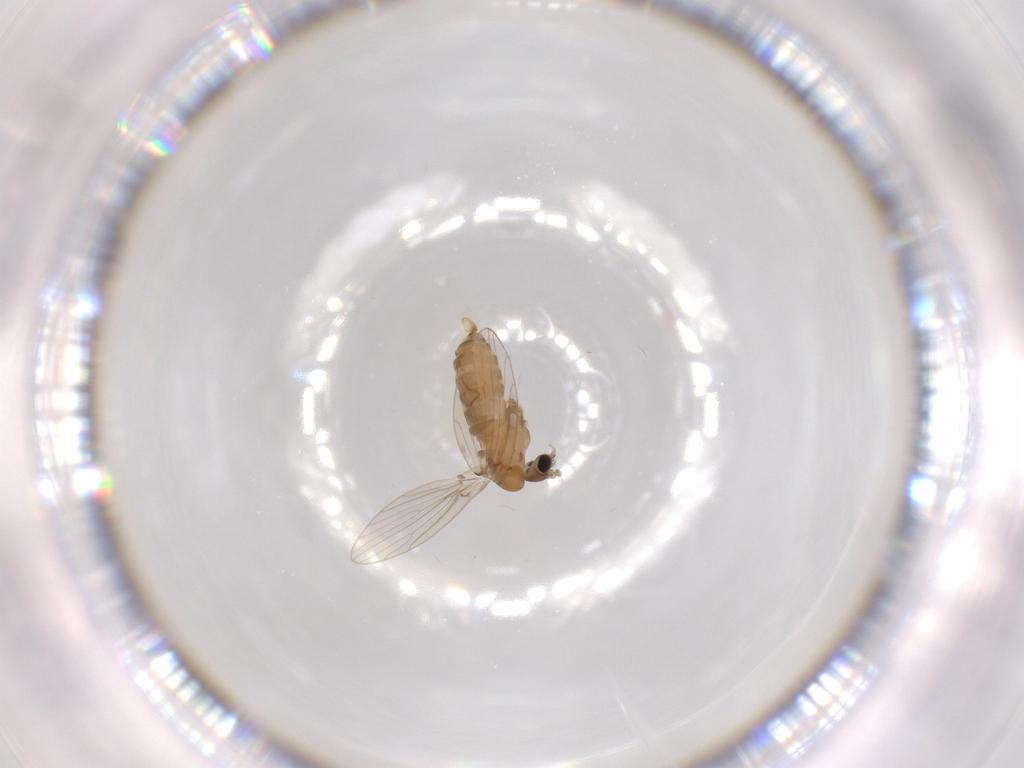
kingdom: Animalia
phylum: Arthropoda
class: Insecta
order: Diptera
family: Psychodidae
